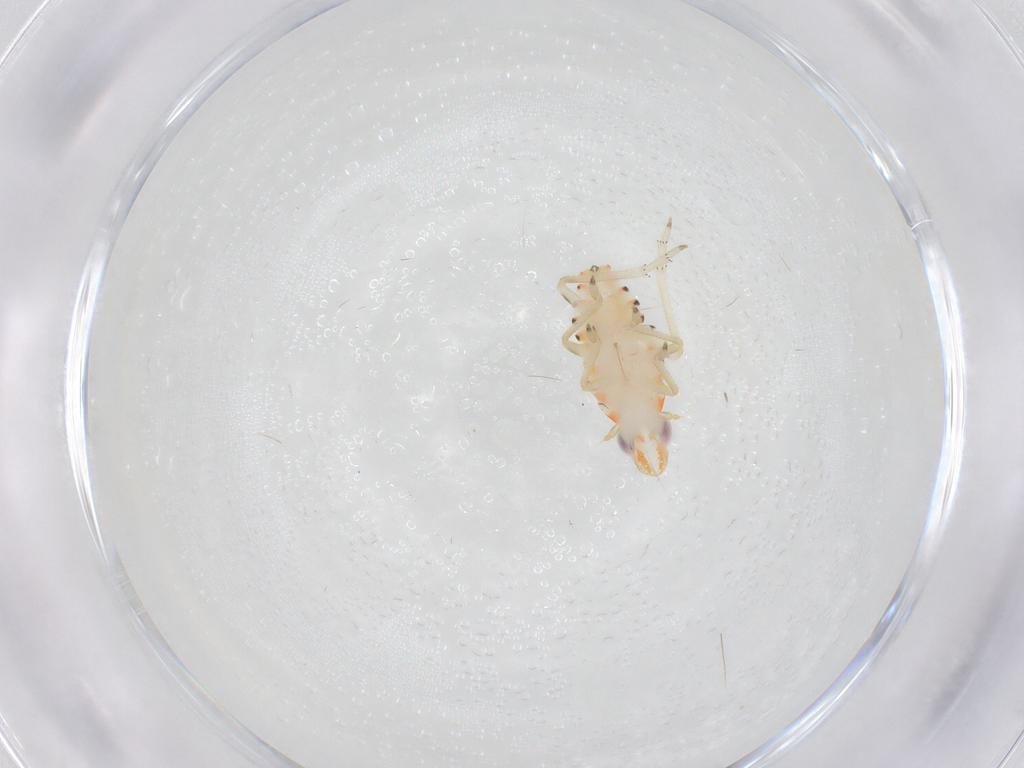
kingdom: Animalia
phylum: Arthropoda
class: Insecta
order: Hemiptera
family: Tropiduchidae
